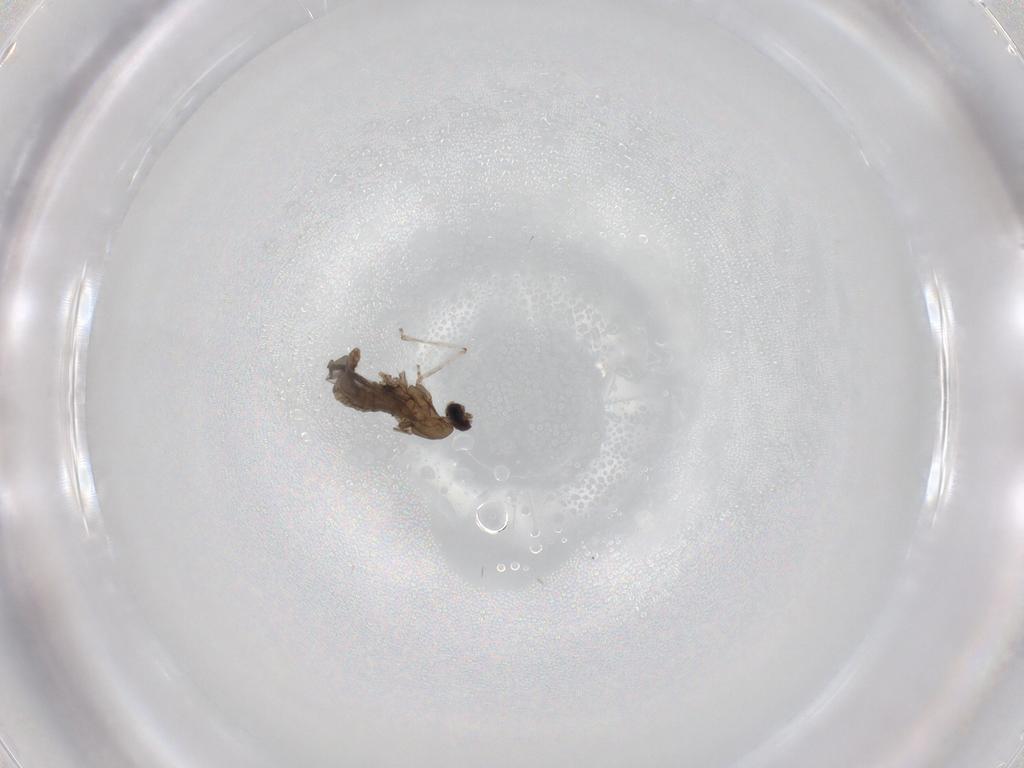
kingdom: Animalia
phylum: Arthropoda
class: Insecta
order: Diptera
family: Cecidomyiidae
